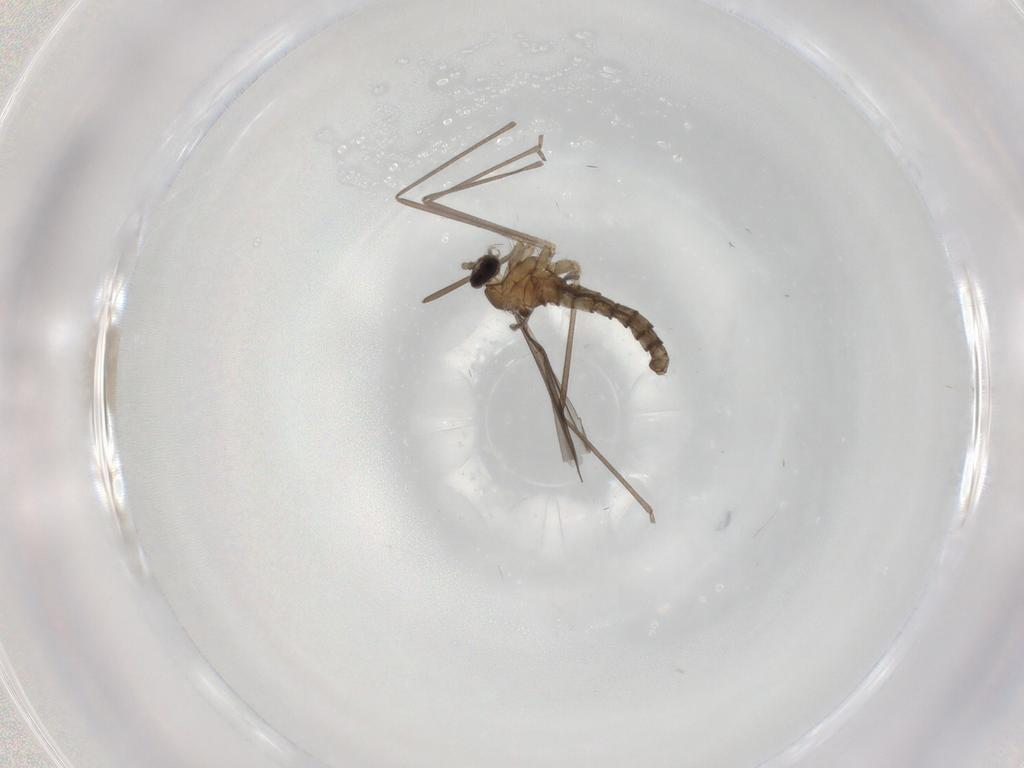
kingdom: Animalia
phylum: Arthropoda
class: Insecta
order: Diptera
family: Cecidomyiidae
